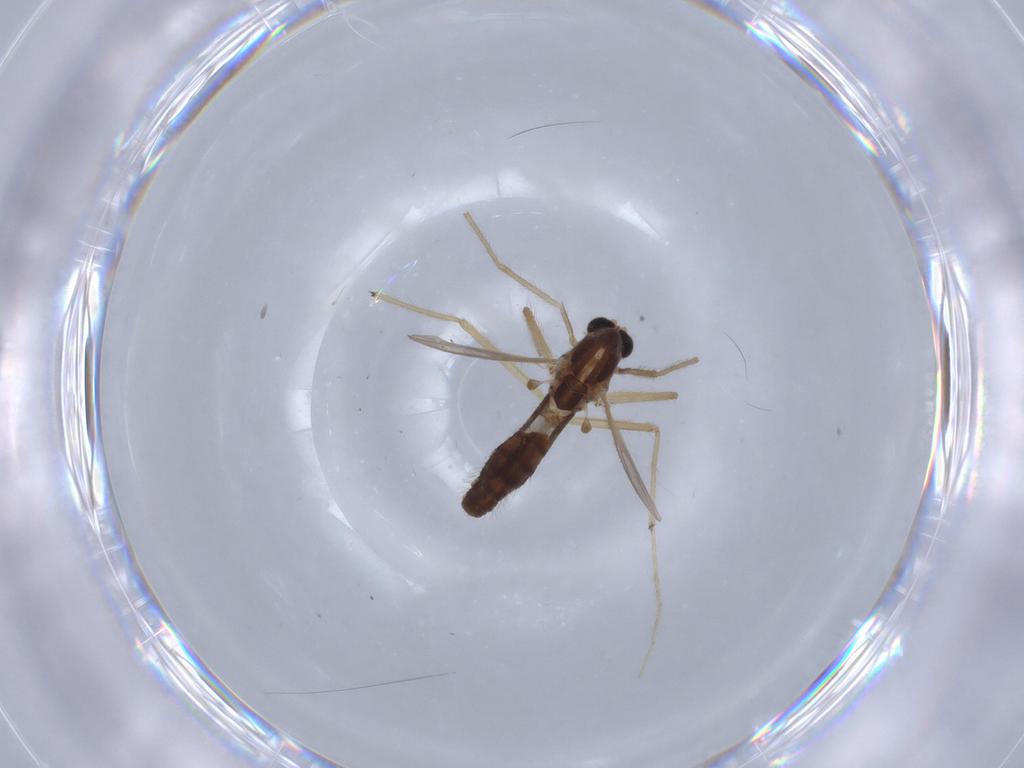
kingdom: Animalia
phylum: Arthropoda
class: Insecta
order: Diptera
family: Chironomidae
